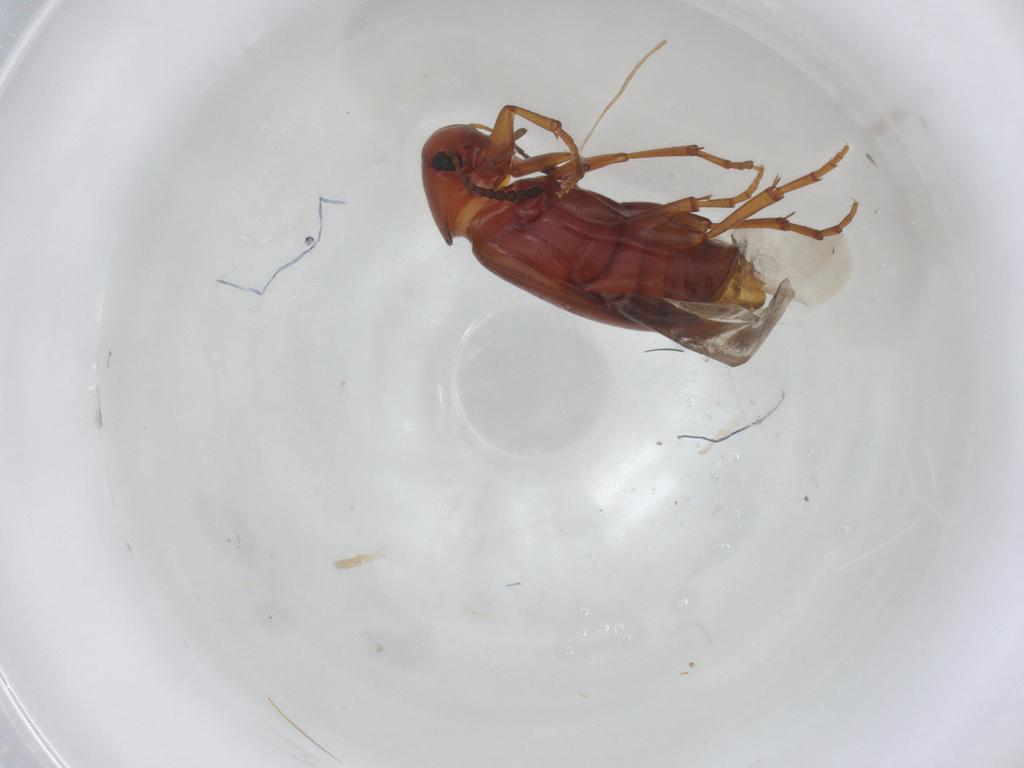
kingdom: Animalia
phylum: Arthropoda
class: Insecta
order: Coleoptera
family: Scraptiidae
